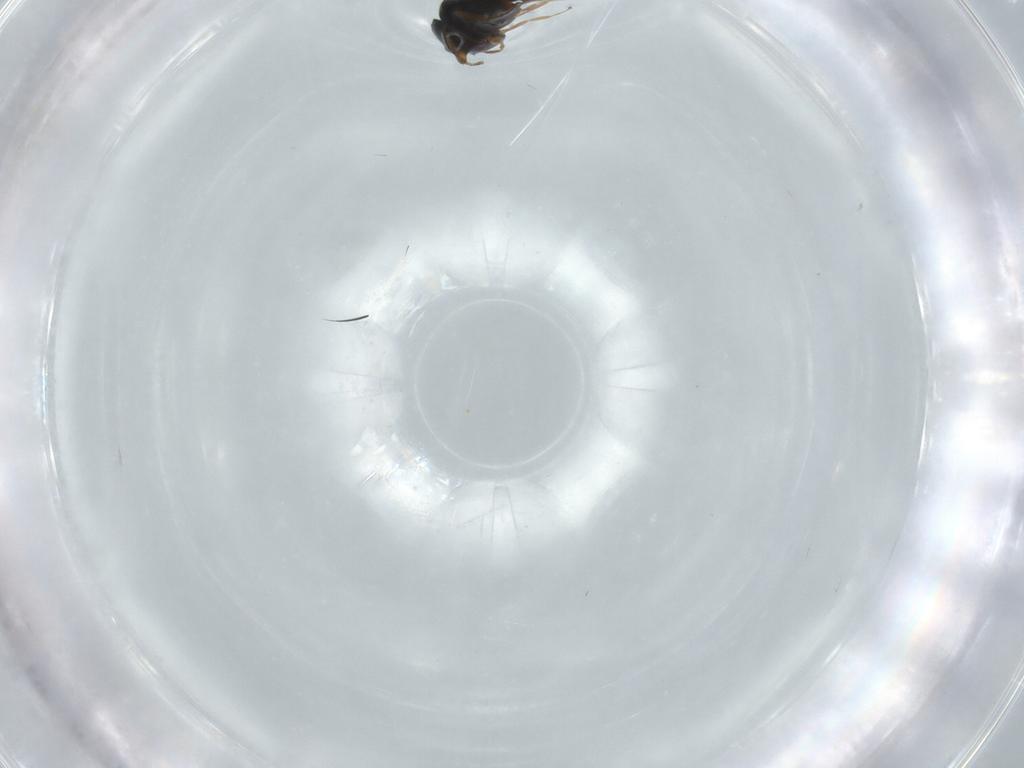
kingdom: Animalia
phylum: Arthropoda
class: Insecta
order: Hymenoptera
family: Scelionidae
